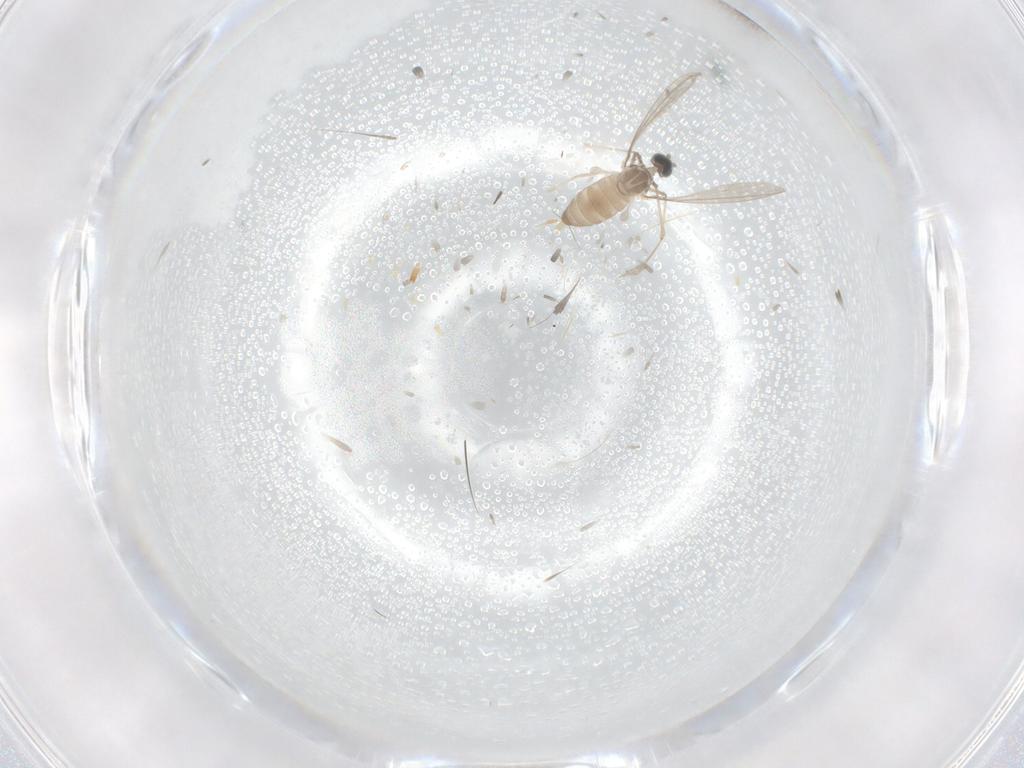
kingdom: Animalia
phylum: Arthropoda
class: Insecta
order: Diptera
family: Cecidomyiidae
